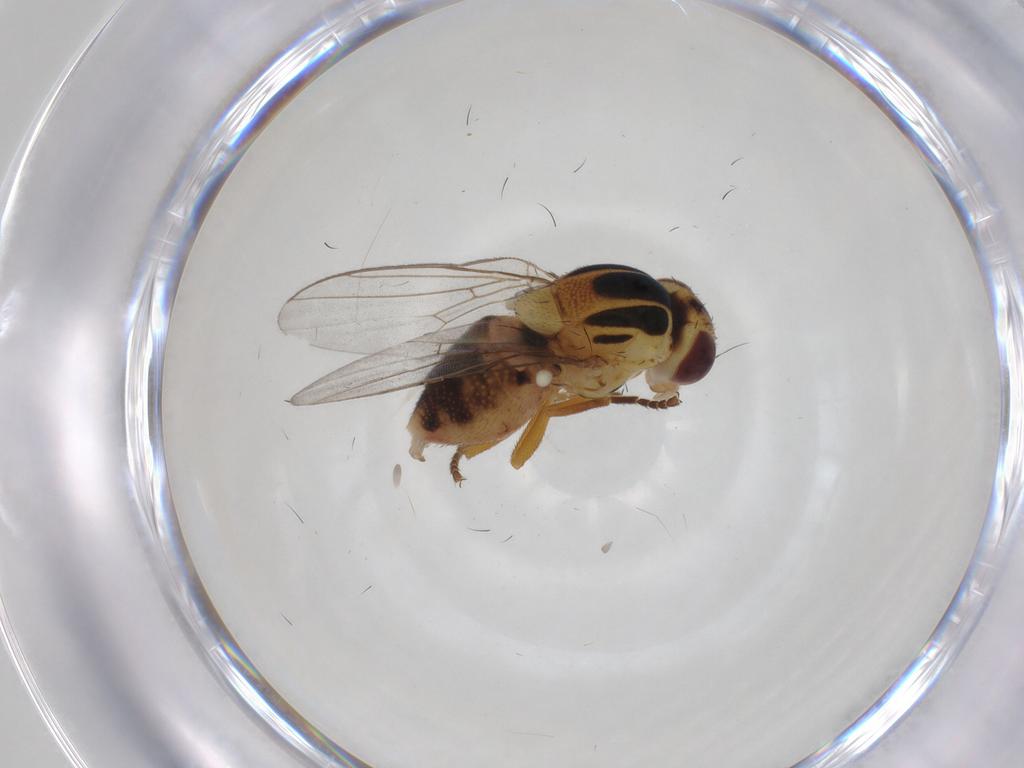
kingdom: Animalia
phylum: Arthropoda
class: Insecta
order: Diptera
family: Chloropidae
